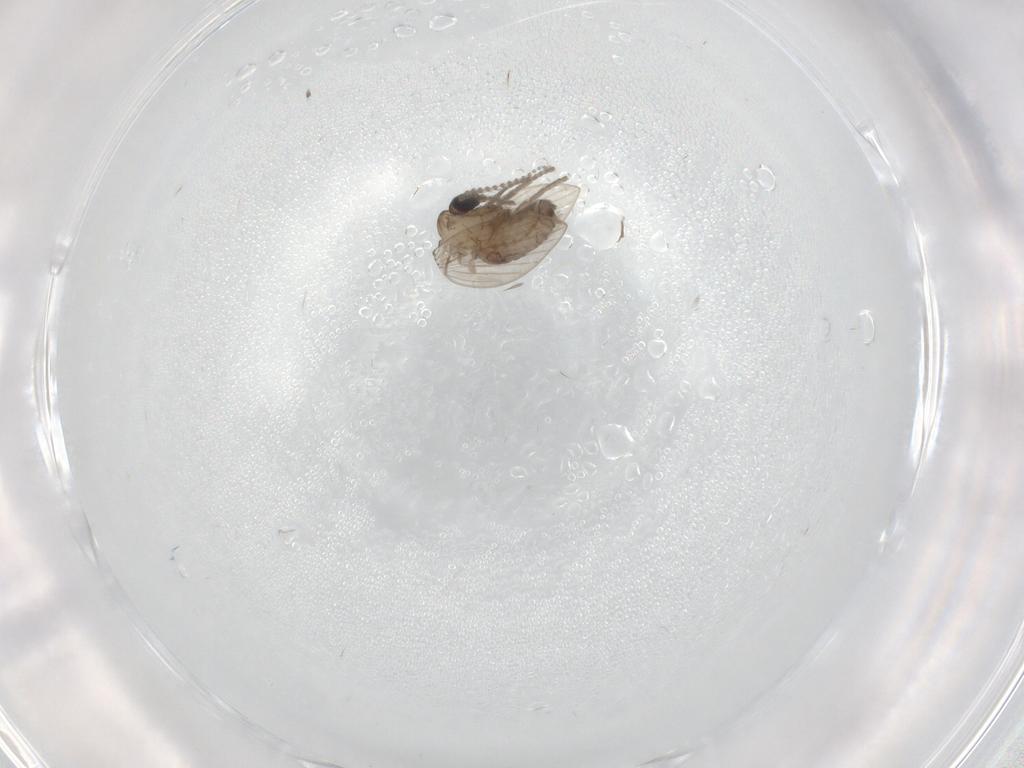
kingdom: Animalia
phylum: Arthropoda
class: Insecta
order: Diptera
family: Psychodidae
